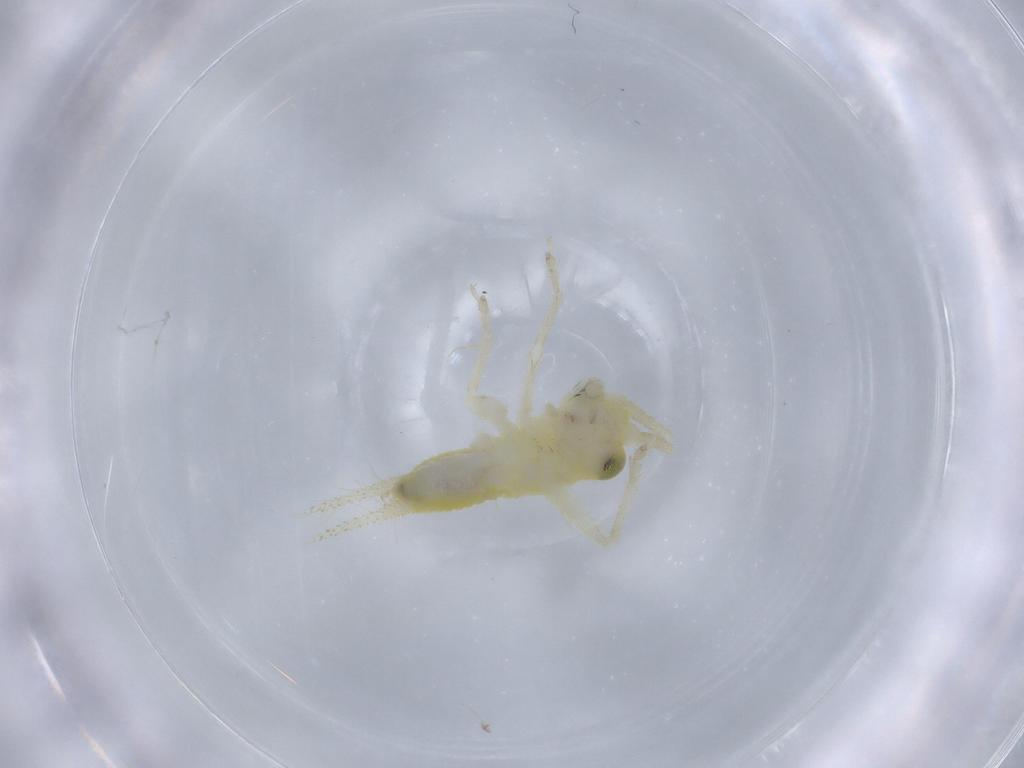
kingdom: Animalia
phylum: Arthropoda
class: Insecta
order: Orthoptera
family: Trigonidiidae
